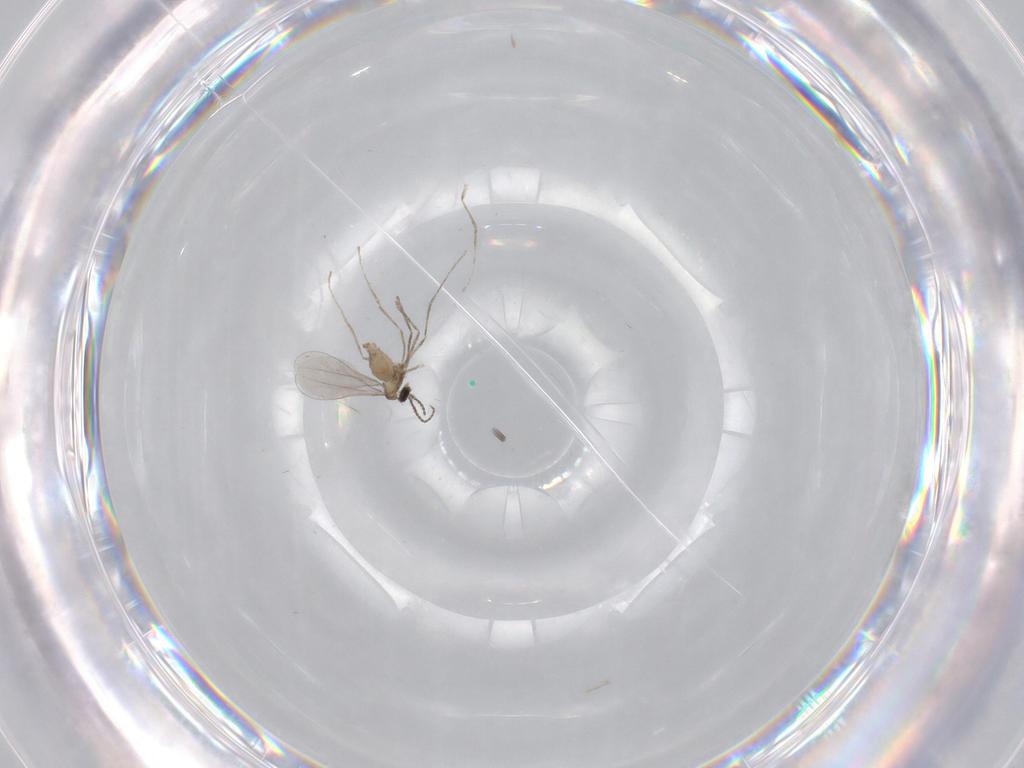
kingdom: Animalia
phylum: Arthropoda
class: Insecta
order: Diptera
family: Cecidomyiidae
